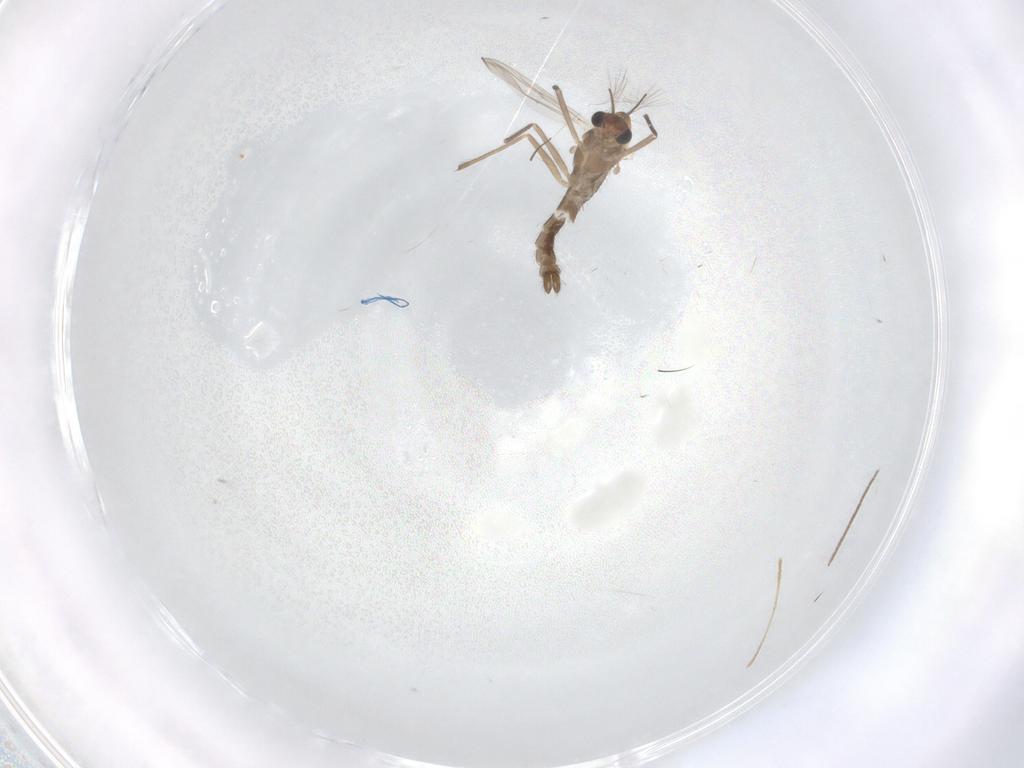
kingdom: Animalia
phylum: Arthropoda
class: Insecta
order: Diptera
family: Chironomidae
